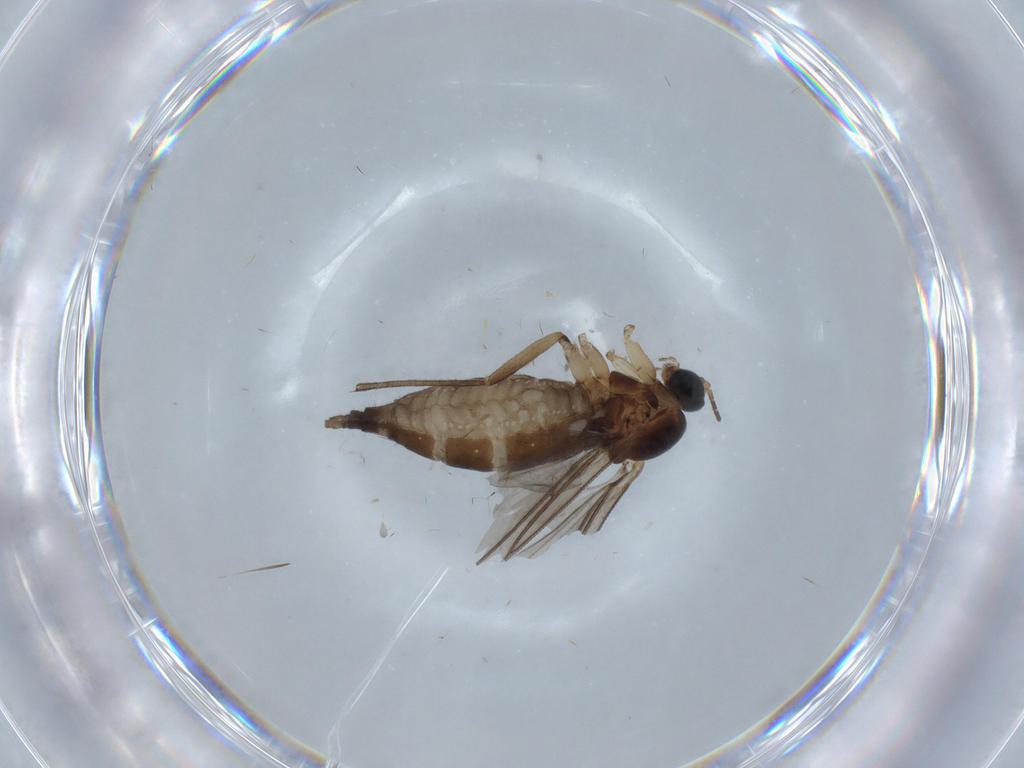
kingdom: Animalia
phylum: Arthropoda
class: Insecta
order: Diptera
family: Sciaridae
